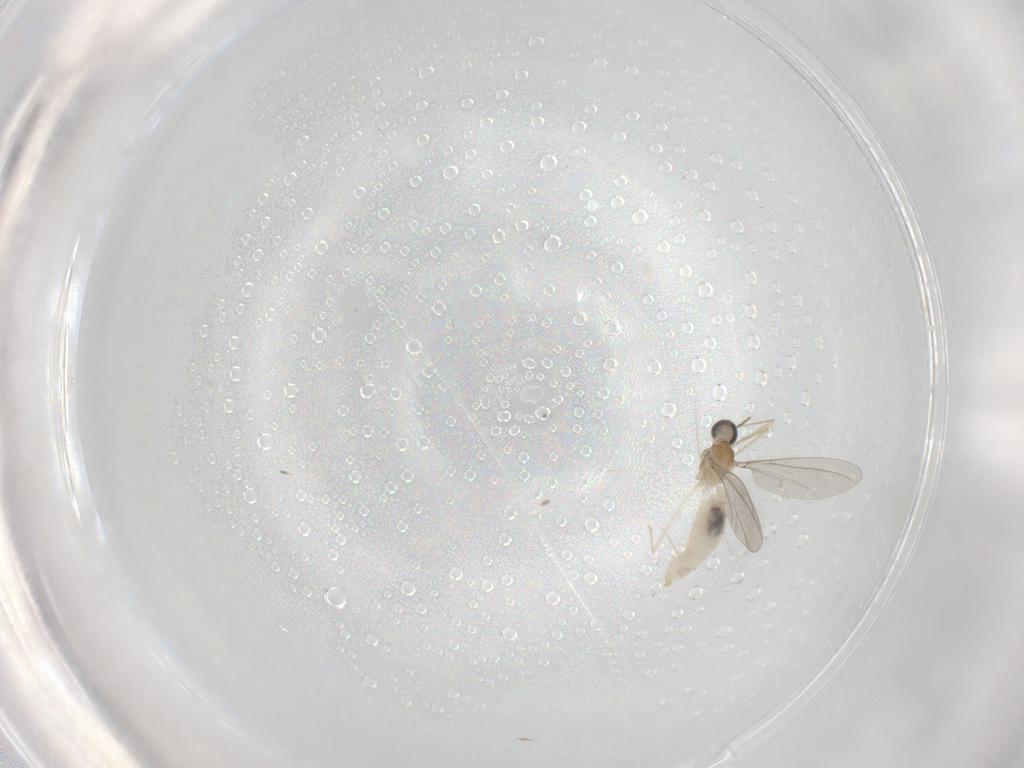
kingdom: Animalia
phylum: Arthropoda
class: Insecta
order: Diptera
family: Cecidomyiidae
